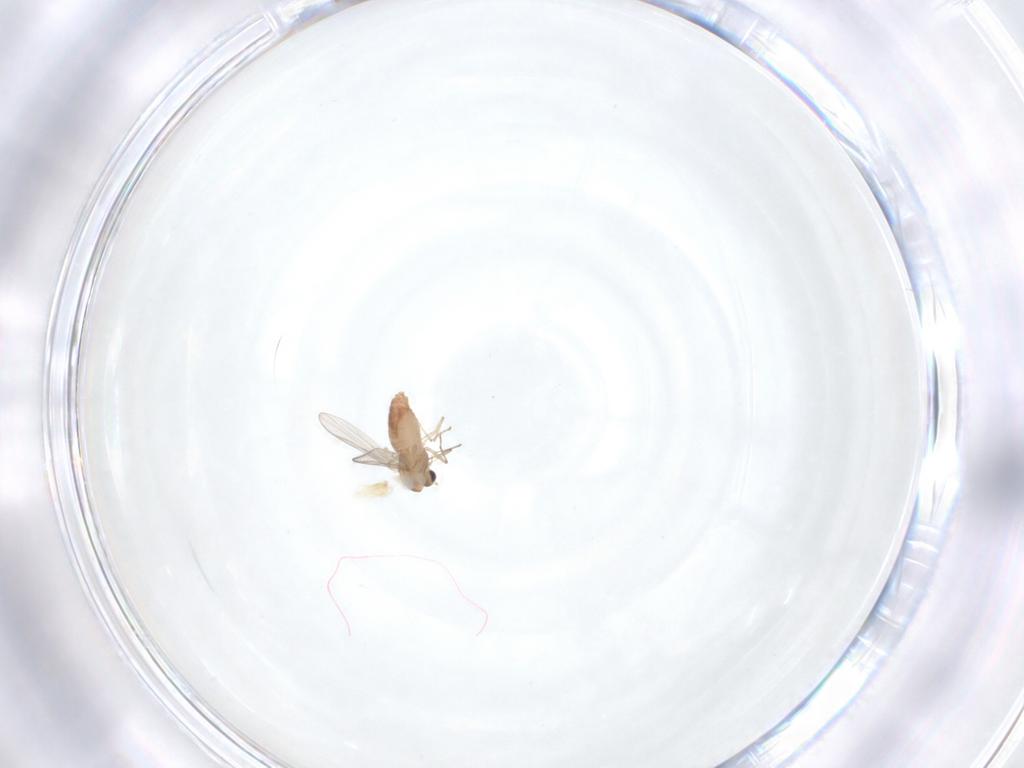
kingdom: Animalia
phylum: Arthropoda
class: Insecta
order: Diptera
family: Chironomidae
